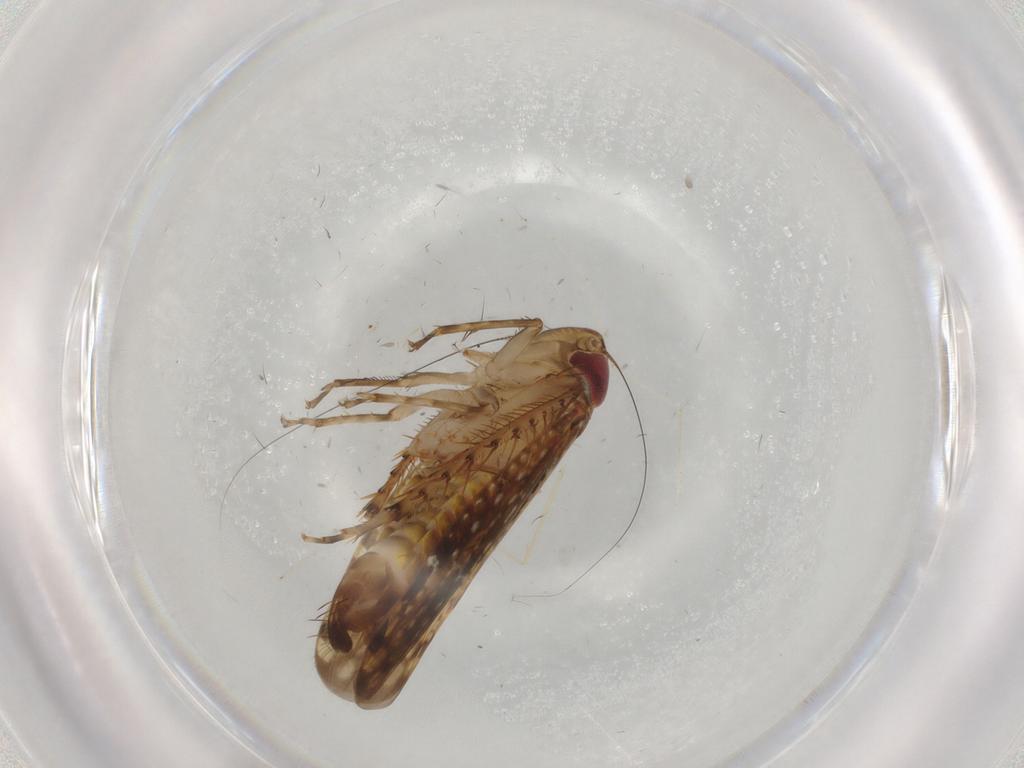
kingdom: Animalia
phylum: Arthropoda
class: Insecta
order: Hemiptera
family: Cicadellidae
